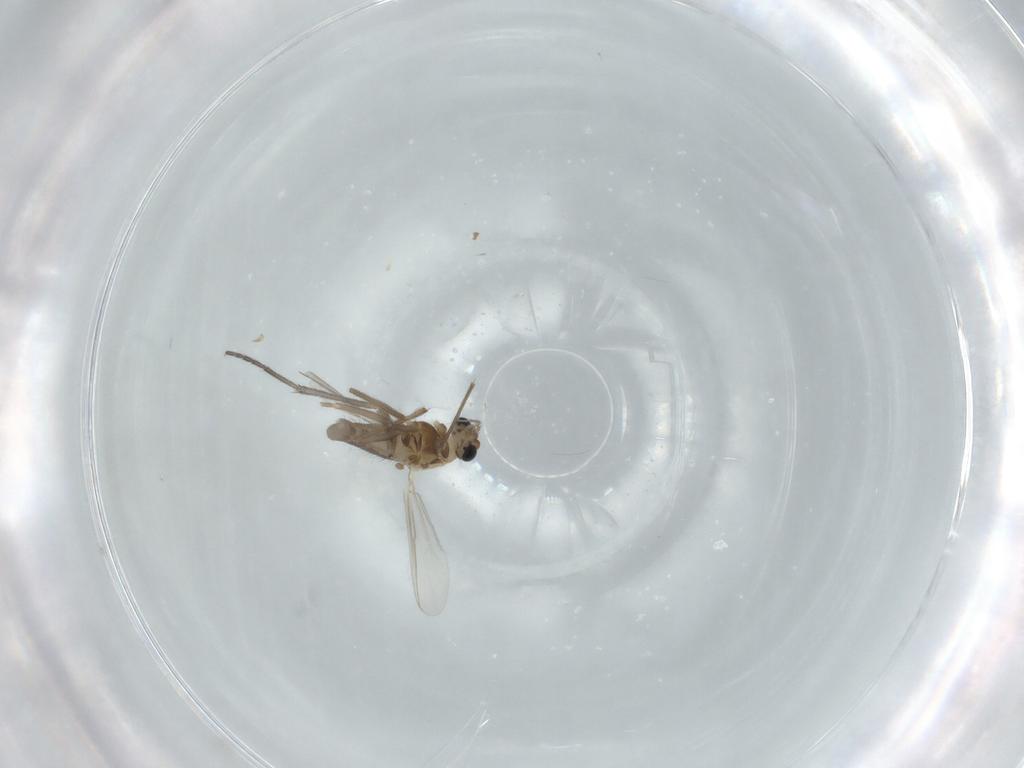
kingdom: Animalia
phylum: Arthropoda
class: Insecta
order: Diptera
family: Chironomidae
